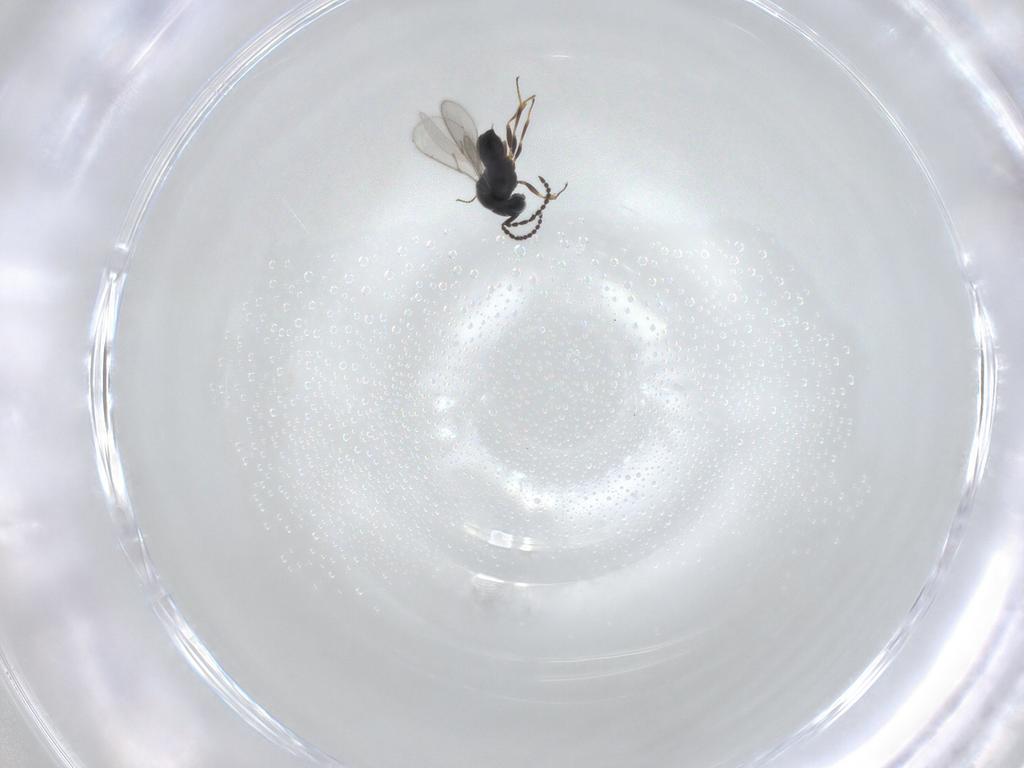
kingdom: Animalia
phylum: Arthropoda
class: Insecta
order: Hymenoptera
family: Scelionidae
